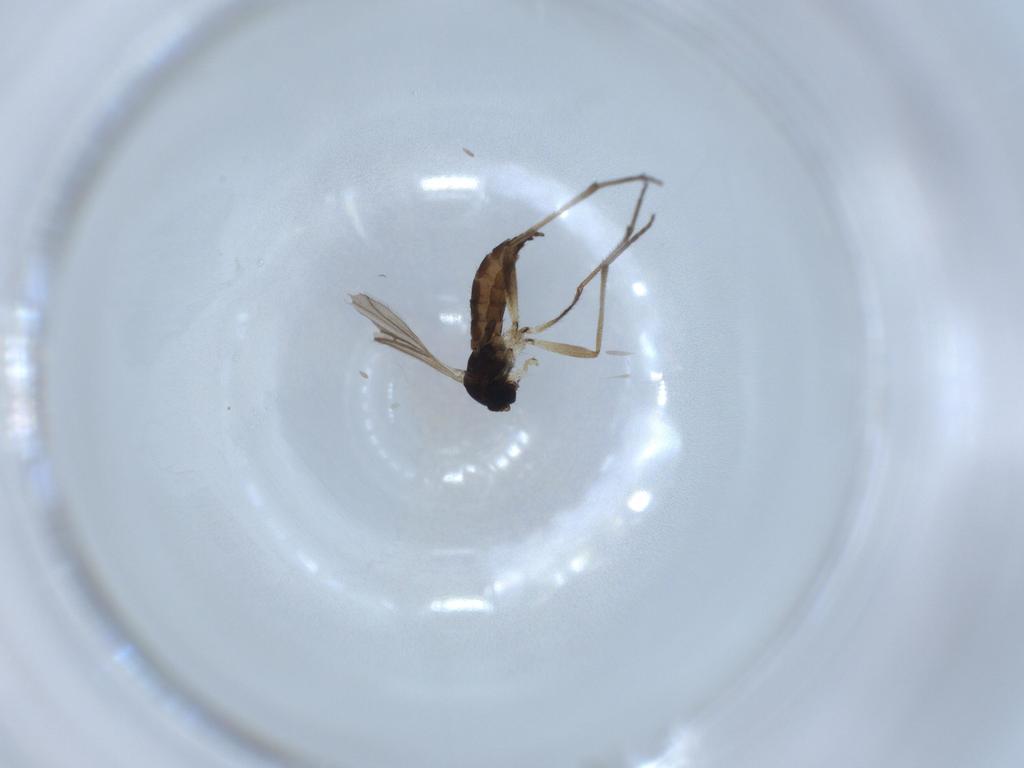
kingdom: Animalia
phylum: Arthropoda
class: Insecta
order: Diptera
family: Sciaridae
